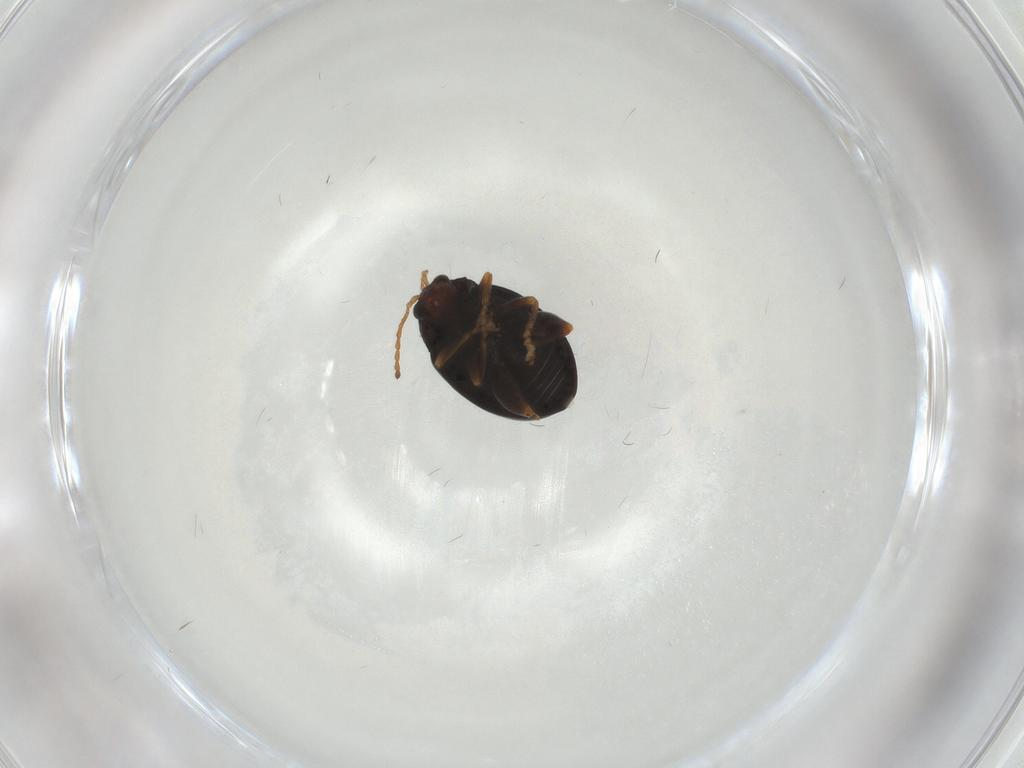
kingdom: Animalia
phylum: Arthropoda
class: Insecta
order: Coleoptera
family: Chrysomelidae
